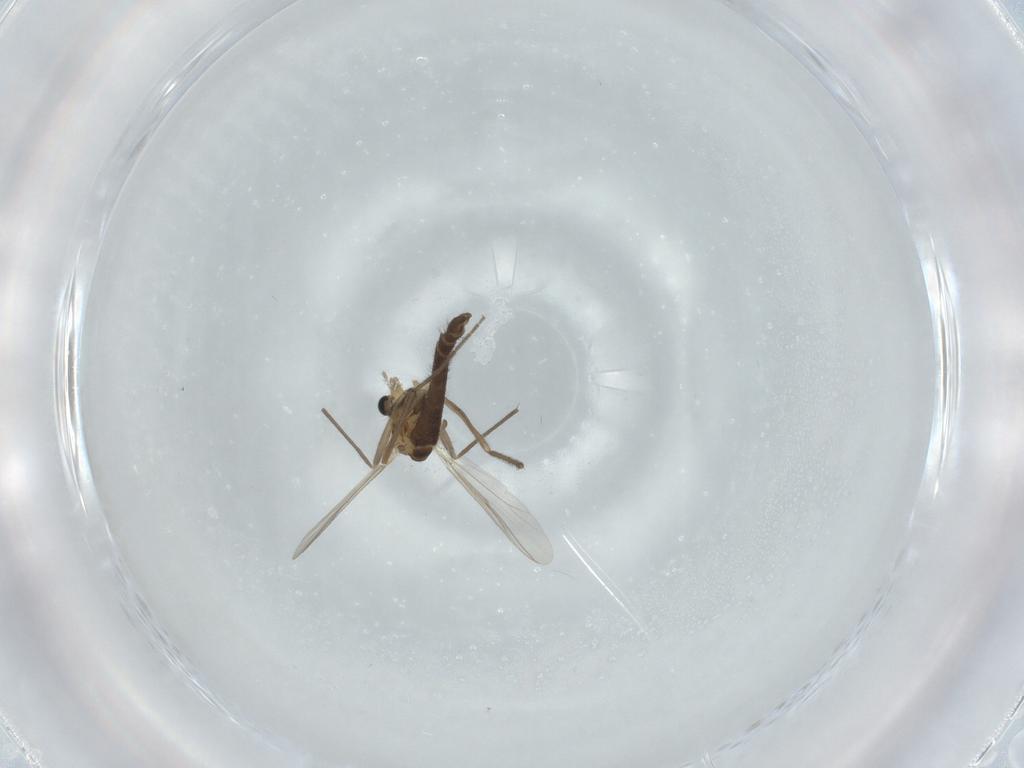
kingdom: Animalia
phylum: Arthropoda
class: Insecta
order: Diptera
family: Chironomidae
